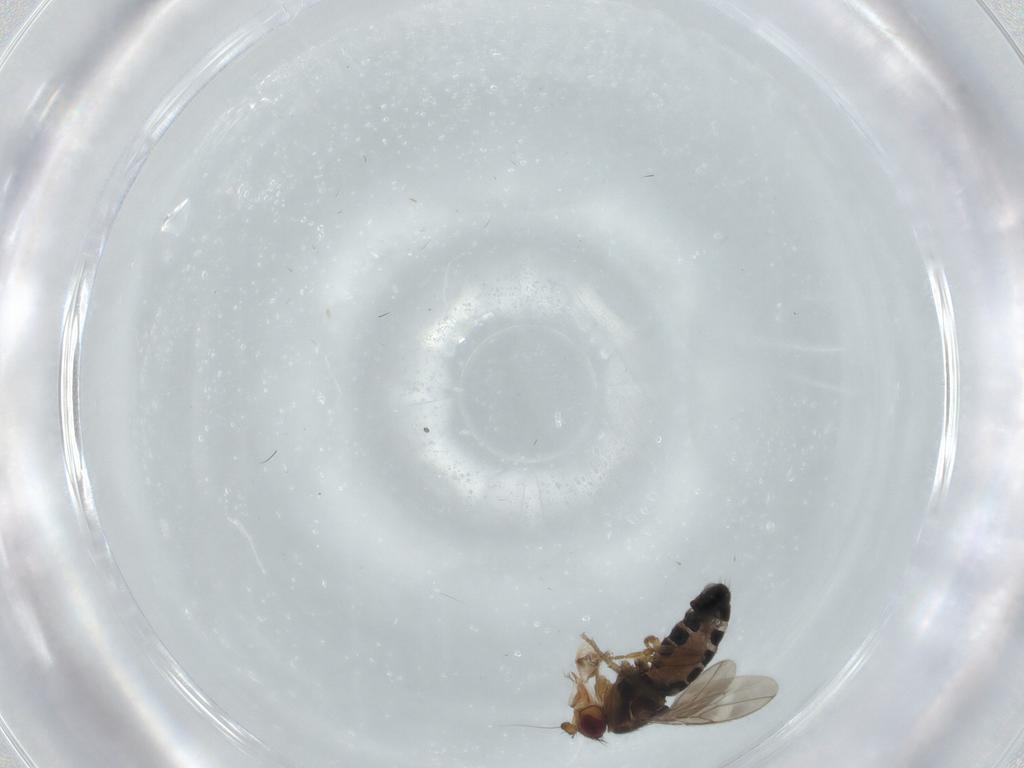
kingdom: Animalia
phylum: Arthropoda
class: Insecta
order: Diptera
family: Sphaeroceridae
